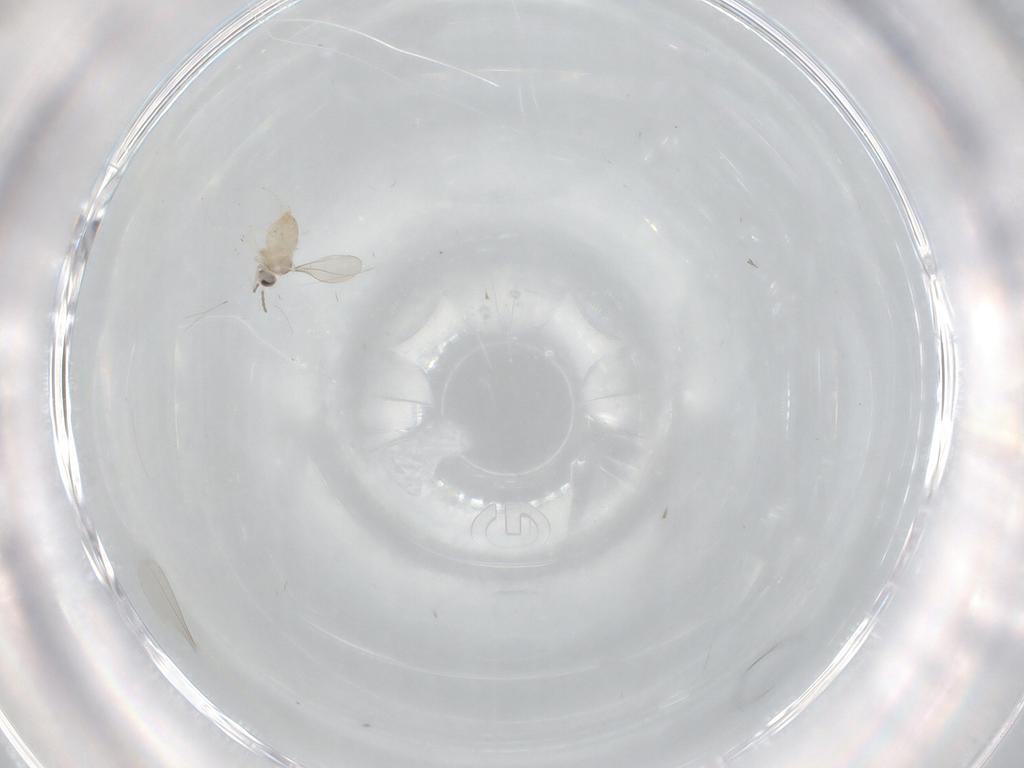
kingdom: Animalia
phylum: Arthropoda
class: Insecta
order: Diptera
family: Cecidomyiidae
